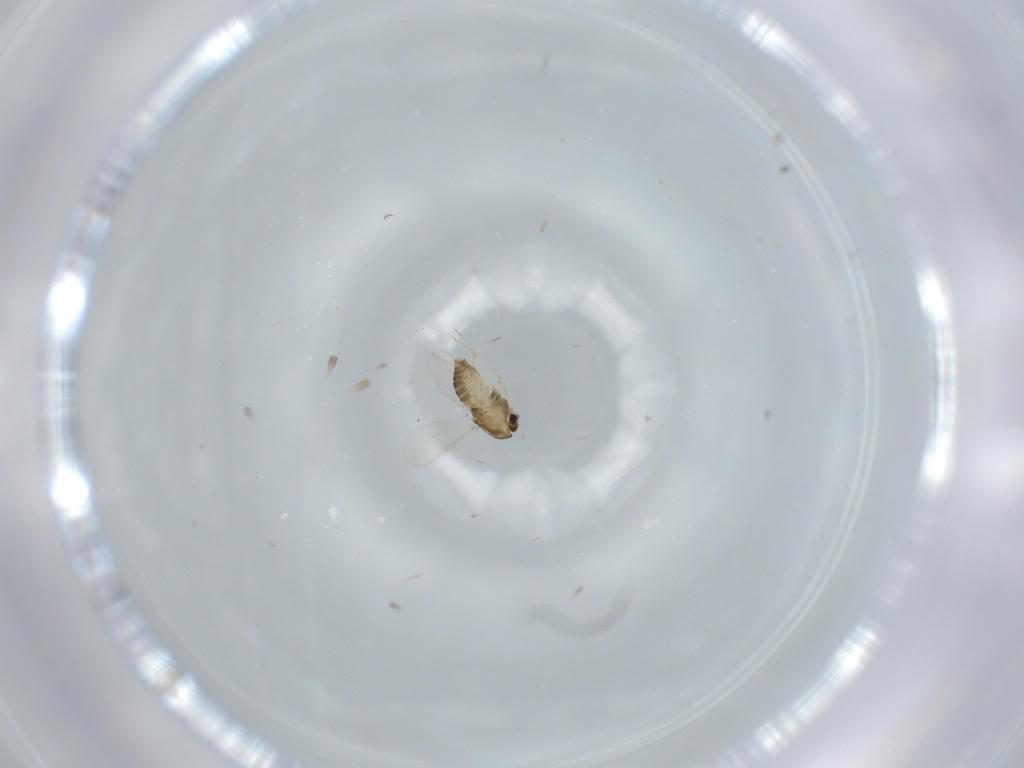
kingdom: Animalia
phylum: Arthropoda
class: Insecta
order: Diptera
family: Chironomidae
